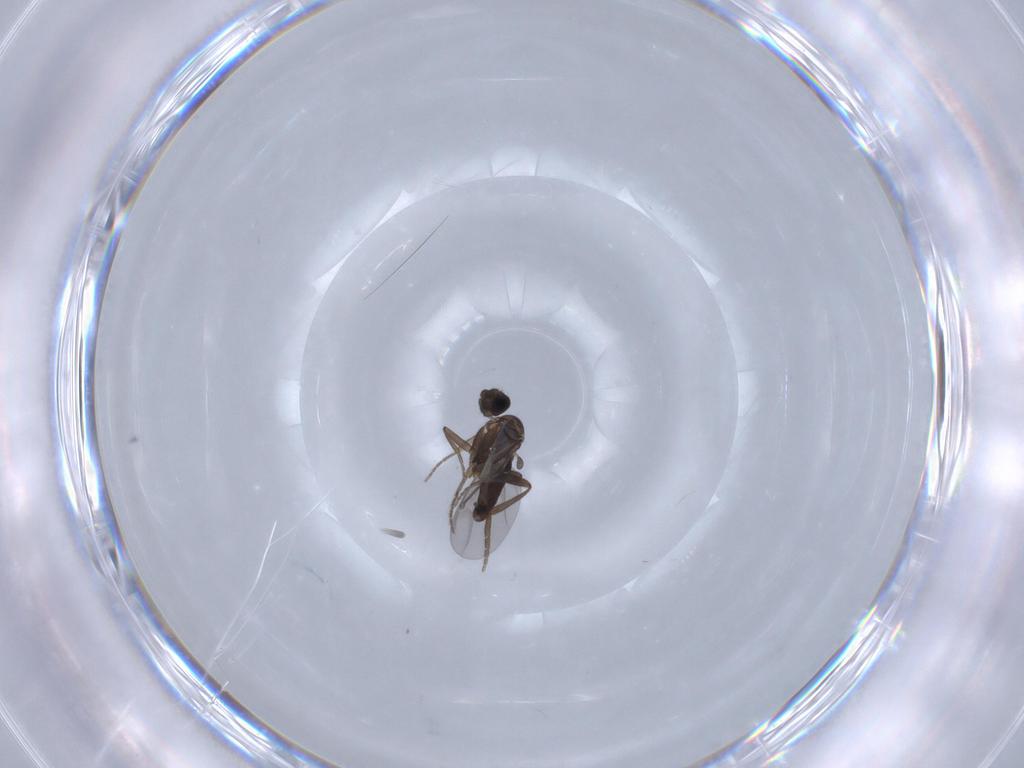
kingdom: Animalia
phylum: Arthropoda
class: Insecta
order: Diptera
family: Phoridae
